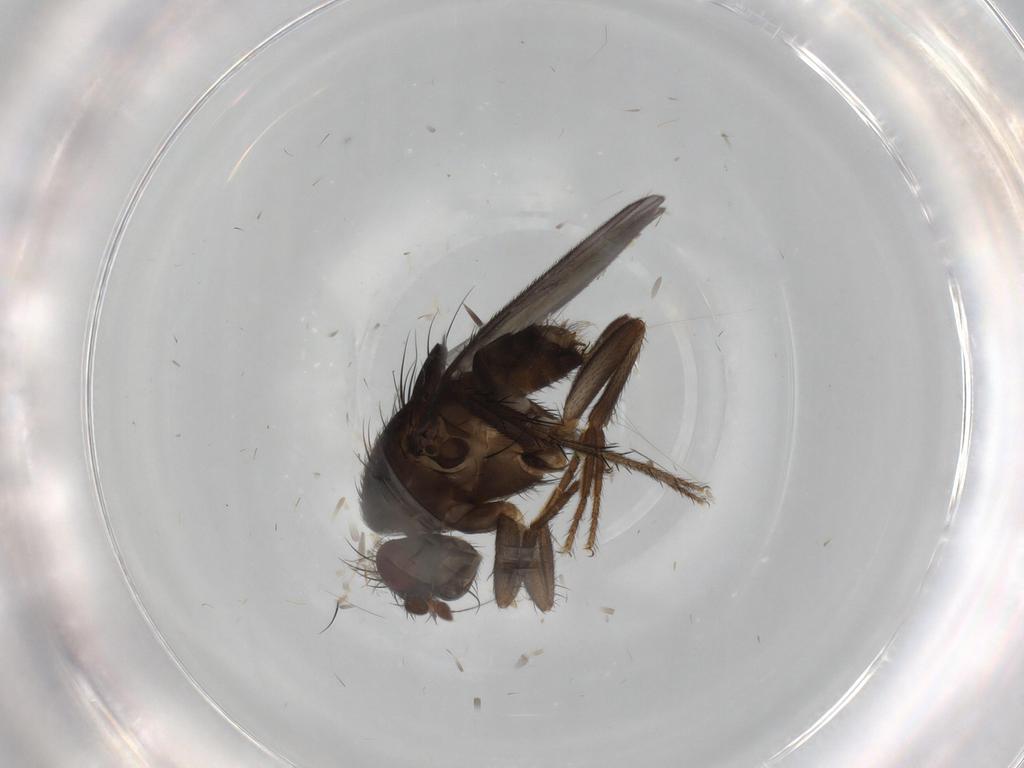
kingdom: Animalia
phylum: Arthropoda
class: Insecta
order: Diptera
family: Sphaeroceridae
